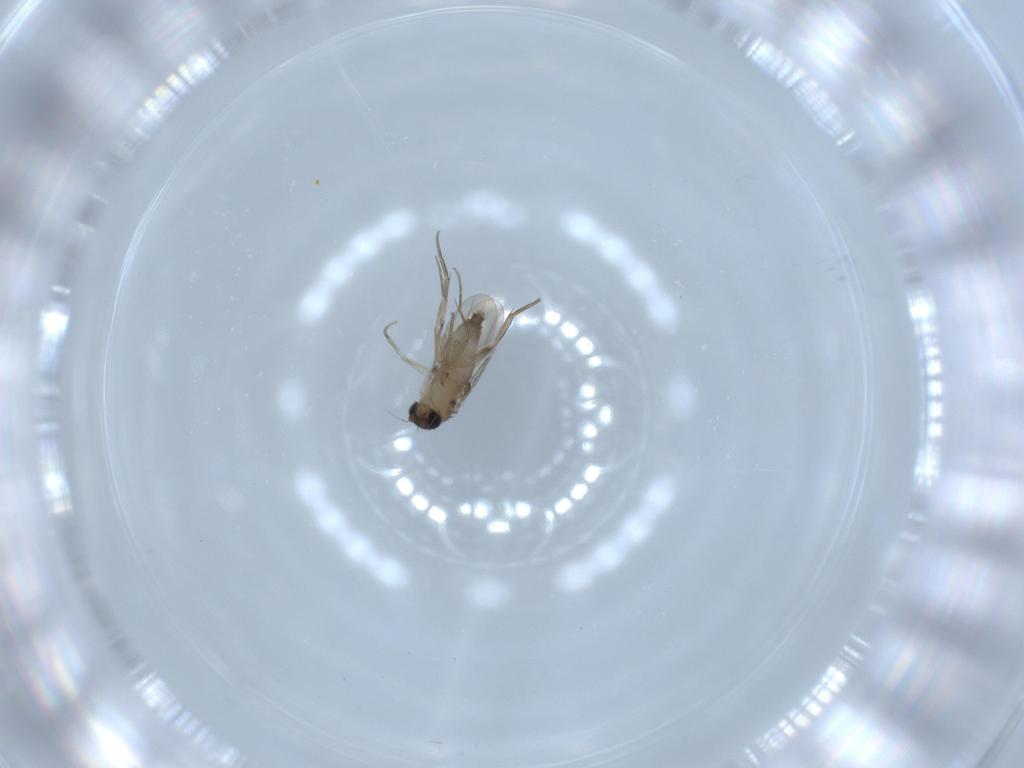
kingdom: Animalia
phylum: Arthropoda
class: Insecta
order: Diptera
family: Phoridae
